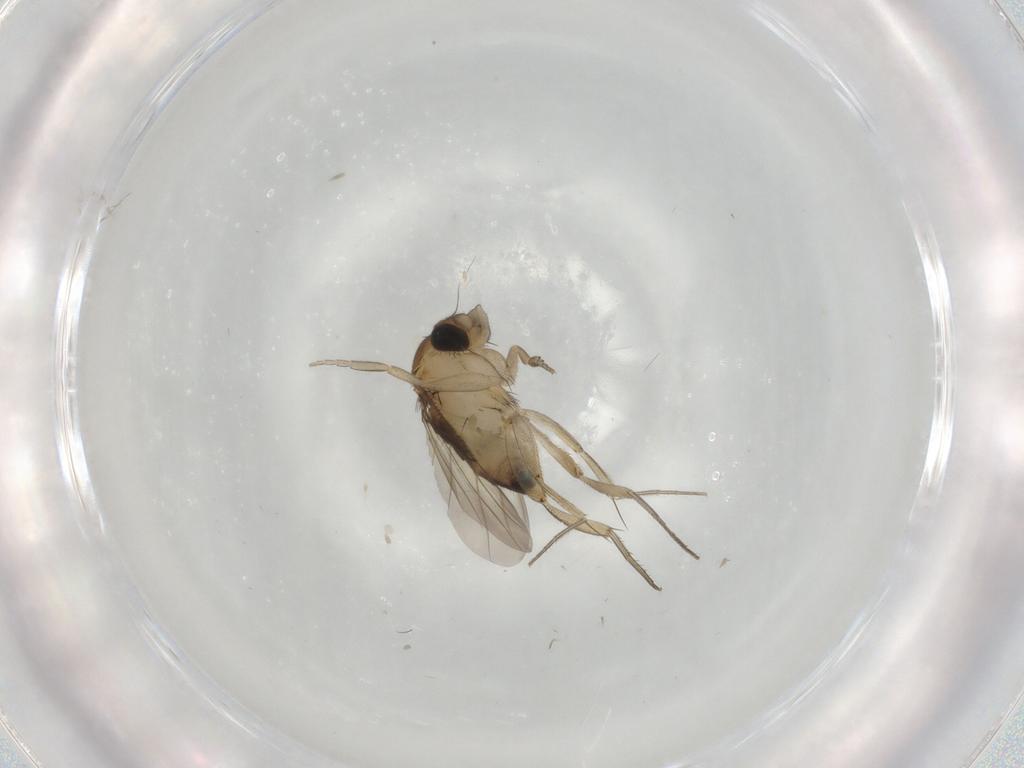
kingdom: Animalia
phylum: Arthropoda
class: Insecta
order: Diptera
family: Phoridae
